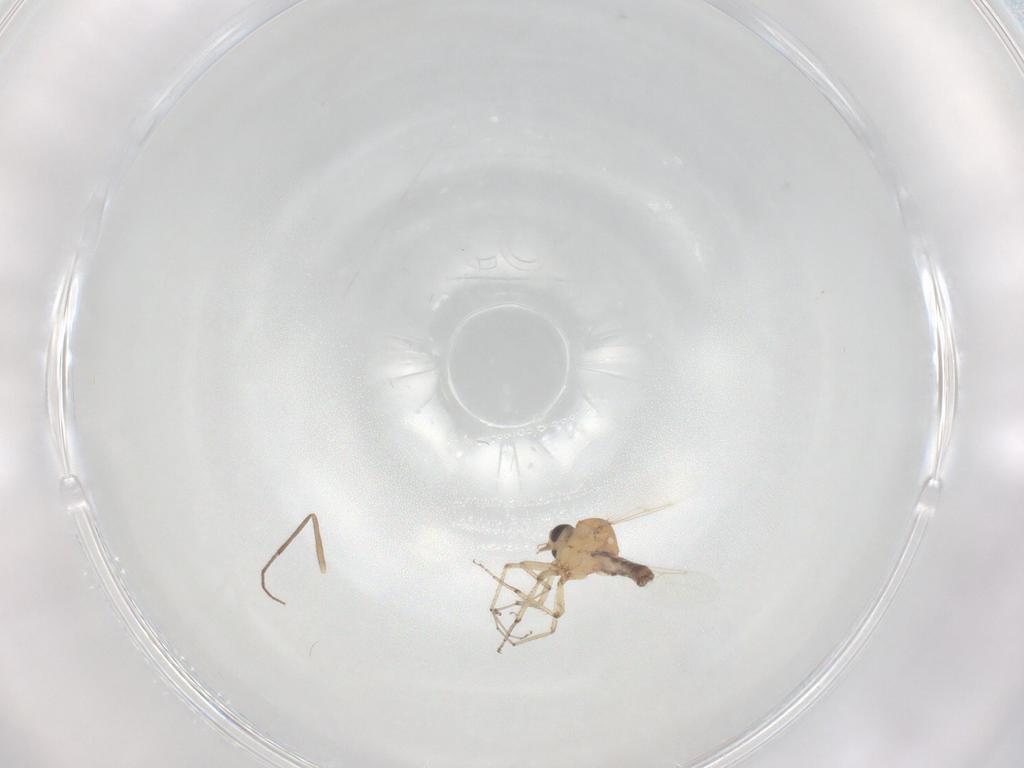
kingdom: Animalia
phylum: Arthropoda
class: Insecta
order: Diptera
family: Ceratopogonidae
